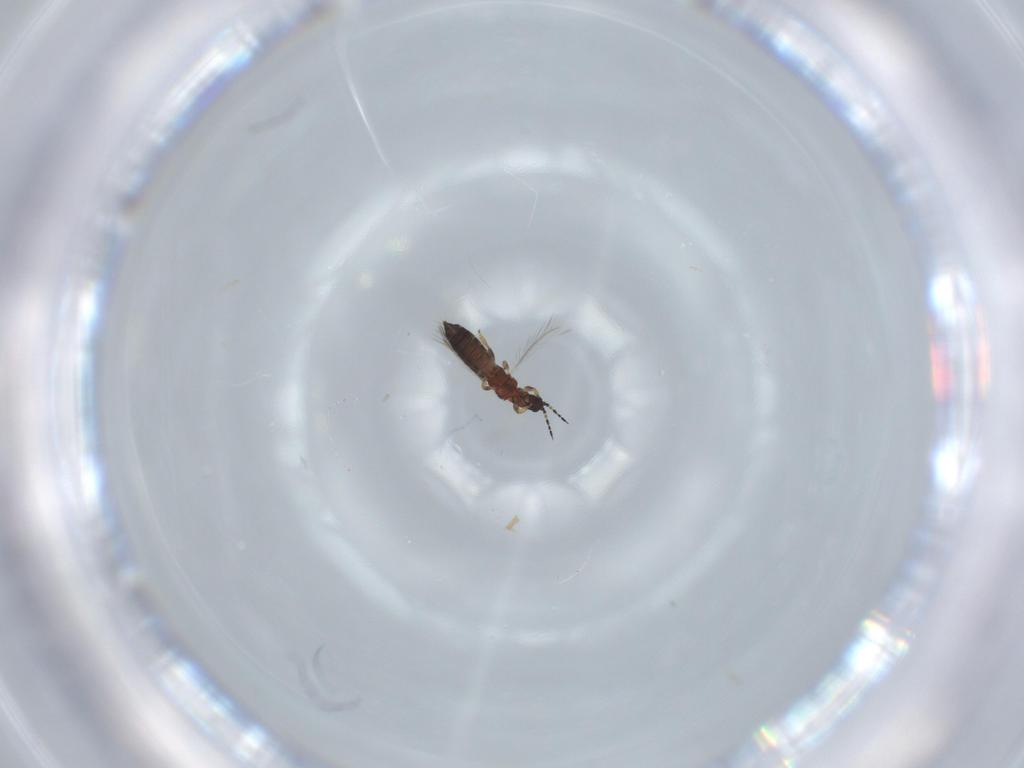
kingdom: Animalia
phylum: Arthropoda
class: Insecta
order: Thysanoptera
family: Thripidae
